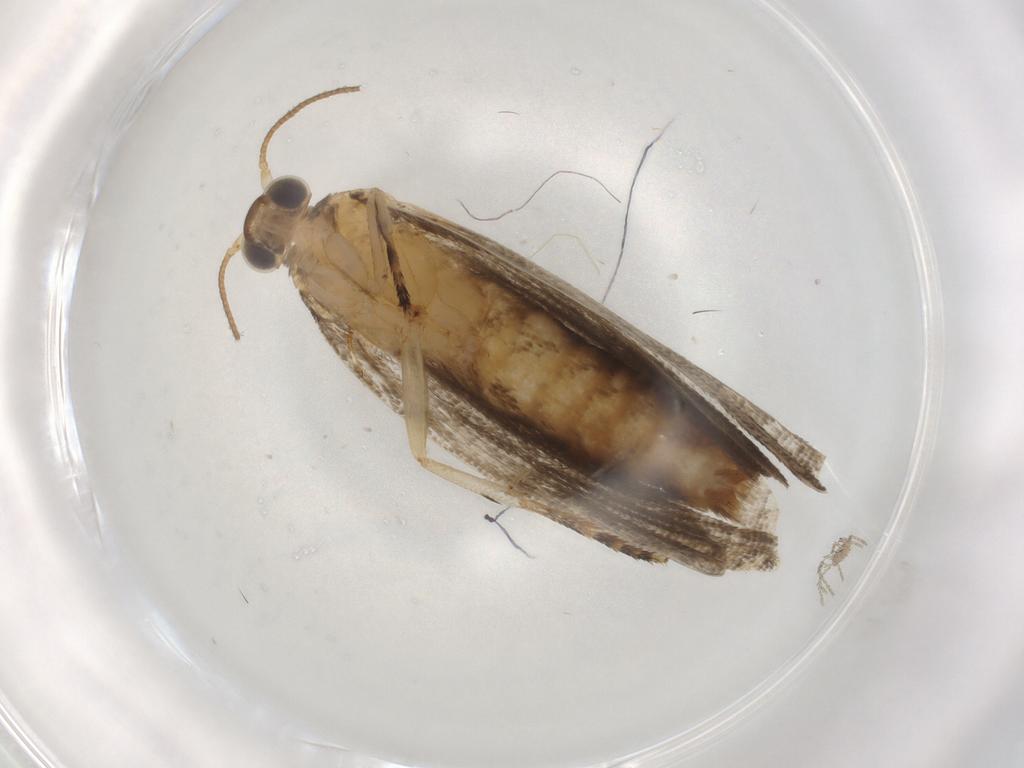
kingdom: Animalia
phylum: Arthropoda
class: Insecta
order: Lepidoptera
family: Tortricidae
